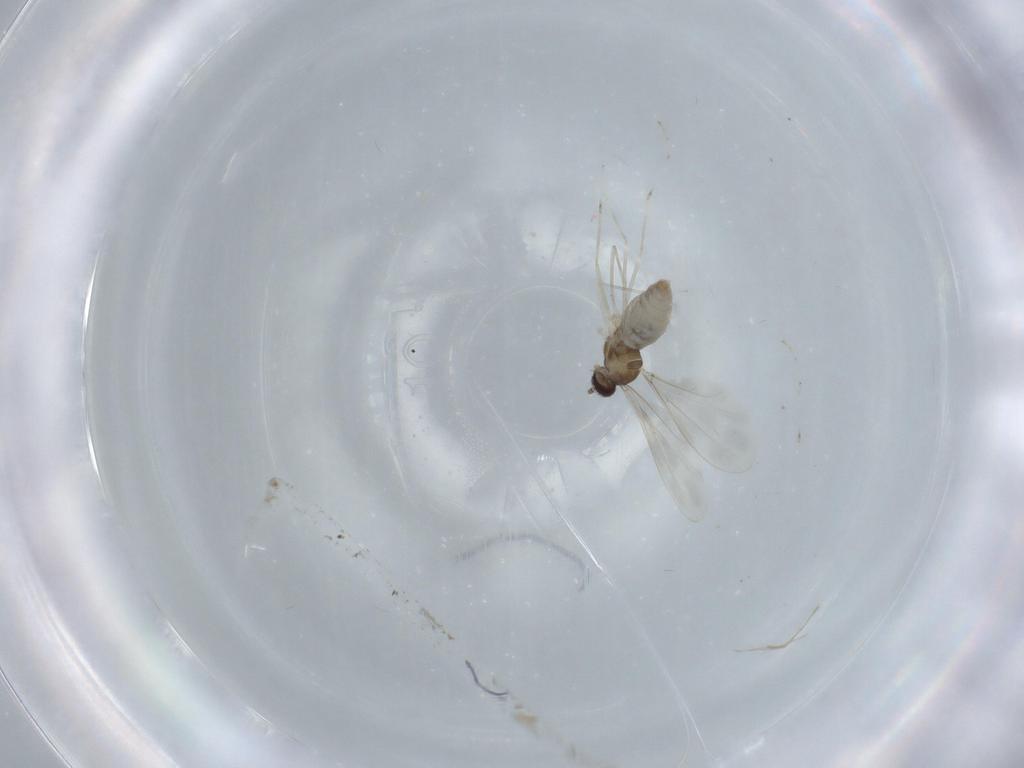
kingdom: Animalia
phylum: Arthropoda
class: Insecta
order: Diptera
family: Cecidomyiidae
